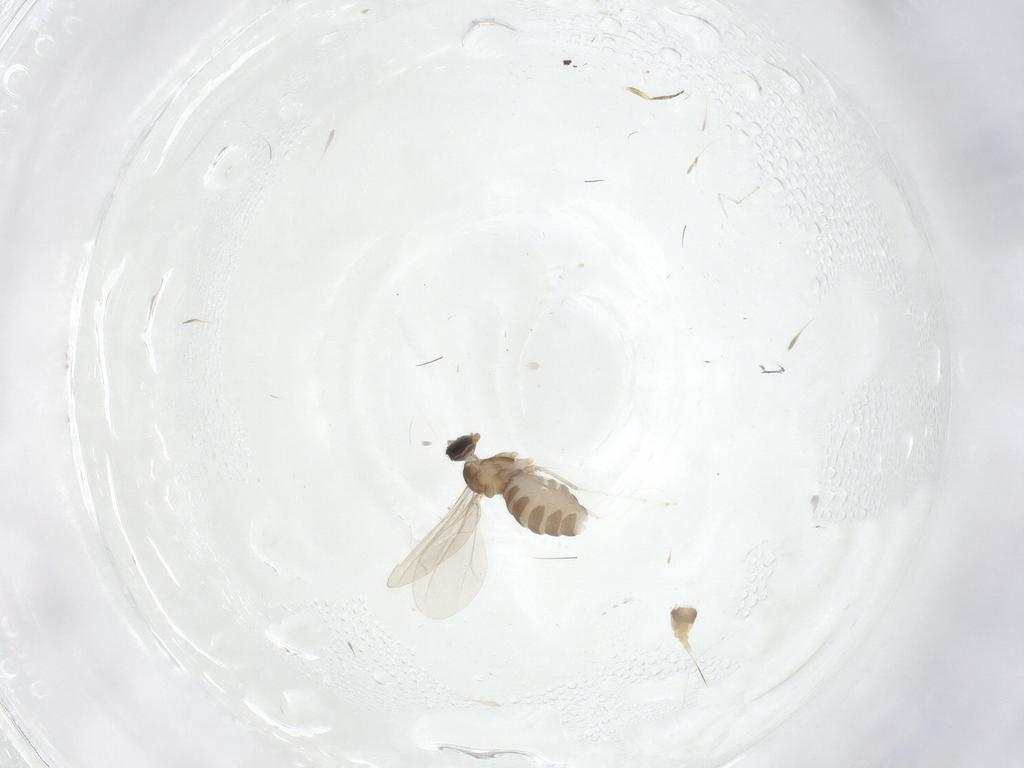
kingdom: Animalia
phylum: Arthropoda
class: Insecta
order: Diptera
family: Cecidomyiidae
